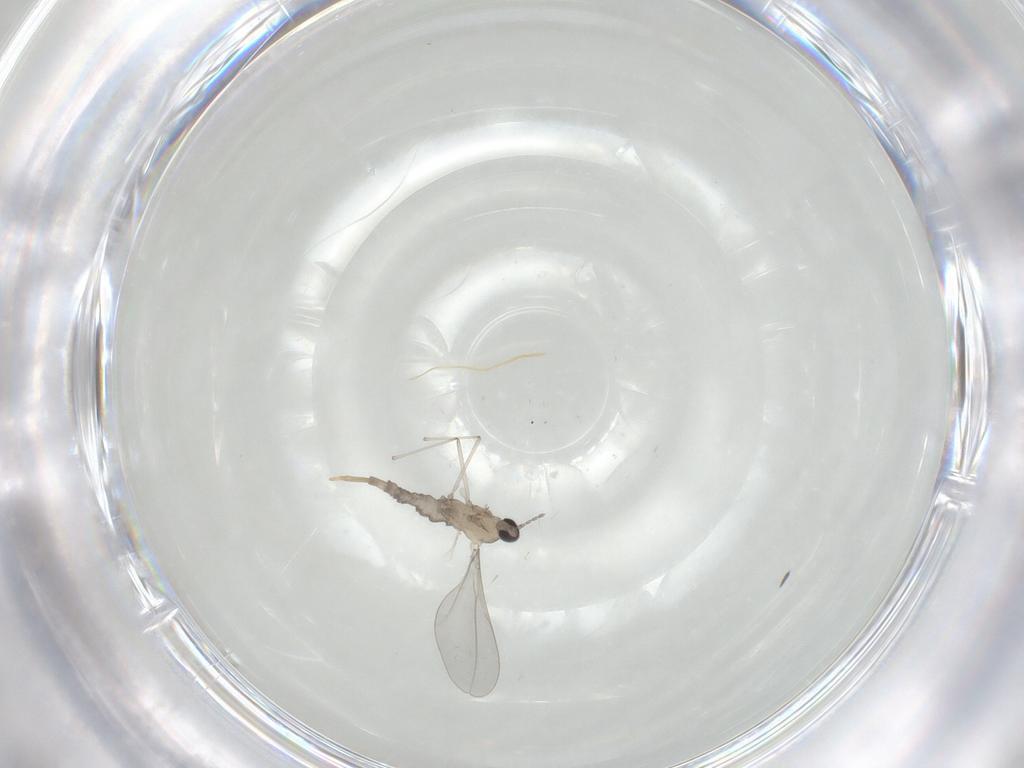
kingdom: Animalia
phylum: Arthropoda
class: Insecta
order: Diptera
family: Cecidomyiidae
